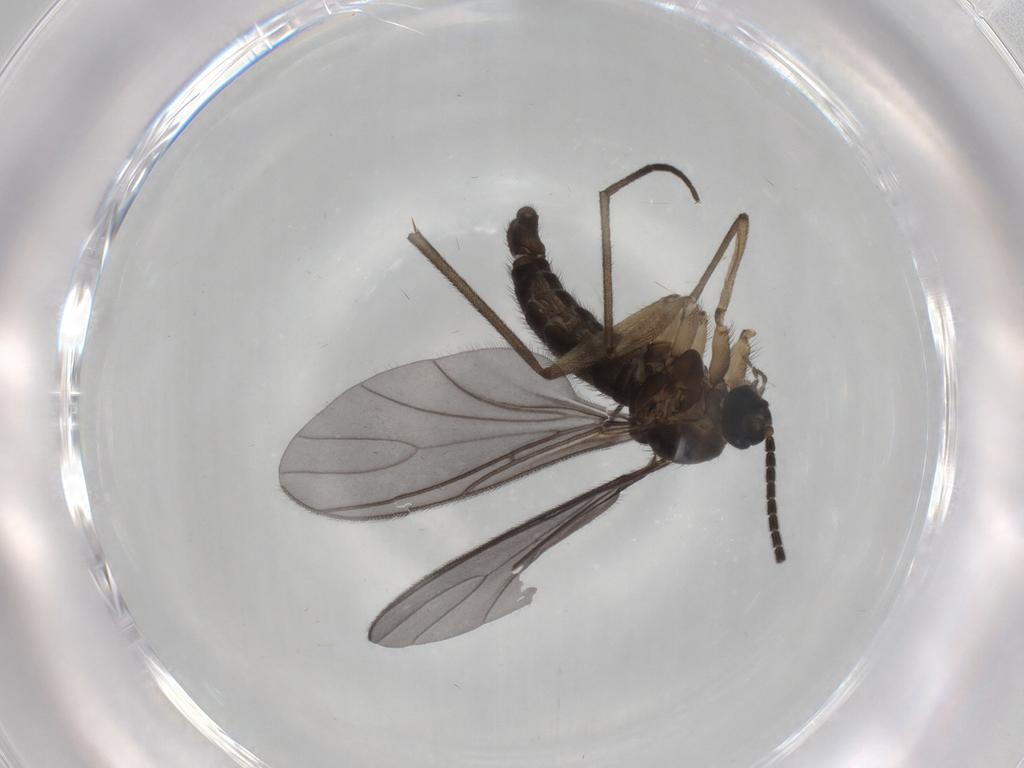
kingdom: Animalia
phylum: Arthropoda
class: Insecta
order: Diptera
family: Sciaridae
